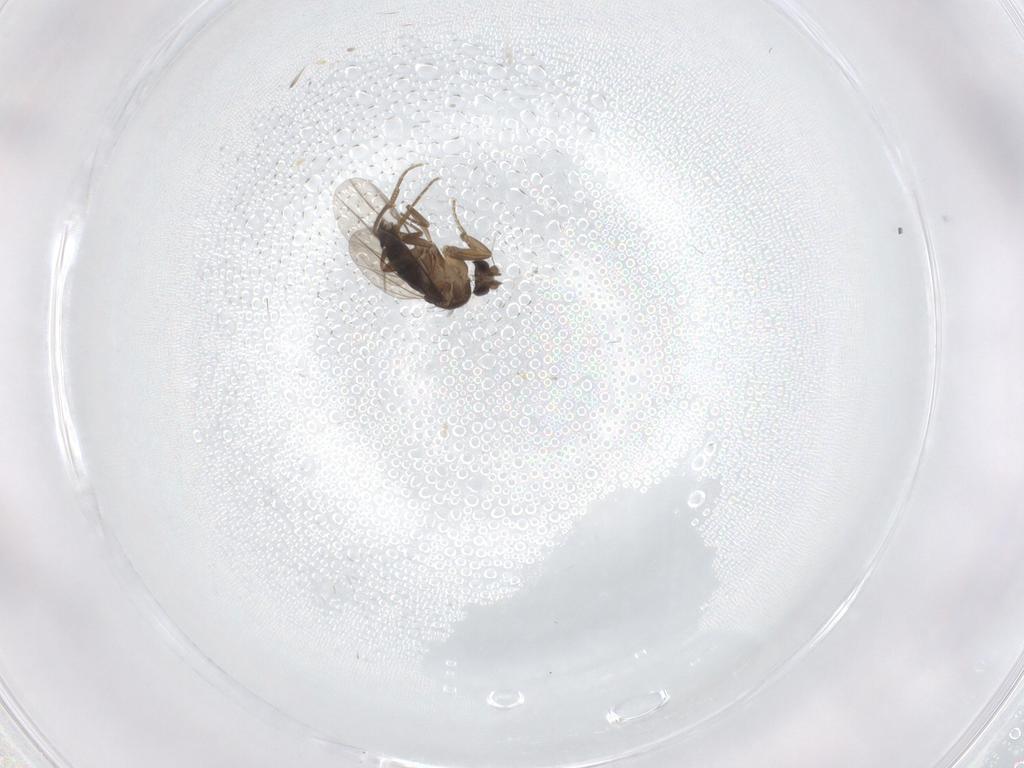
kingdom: Animalia
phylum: Arthropoda
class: Insecta
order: Diptera
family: Chironomidae
